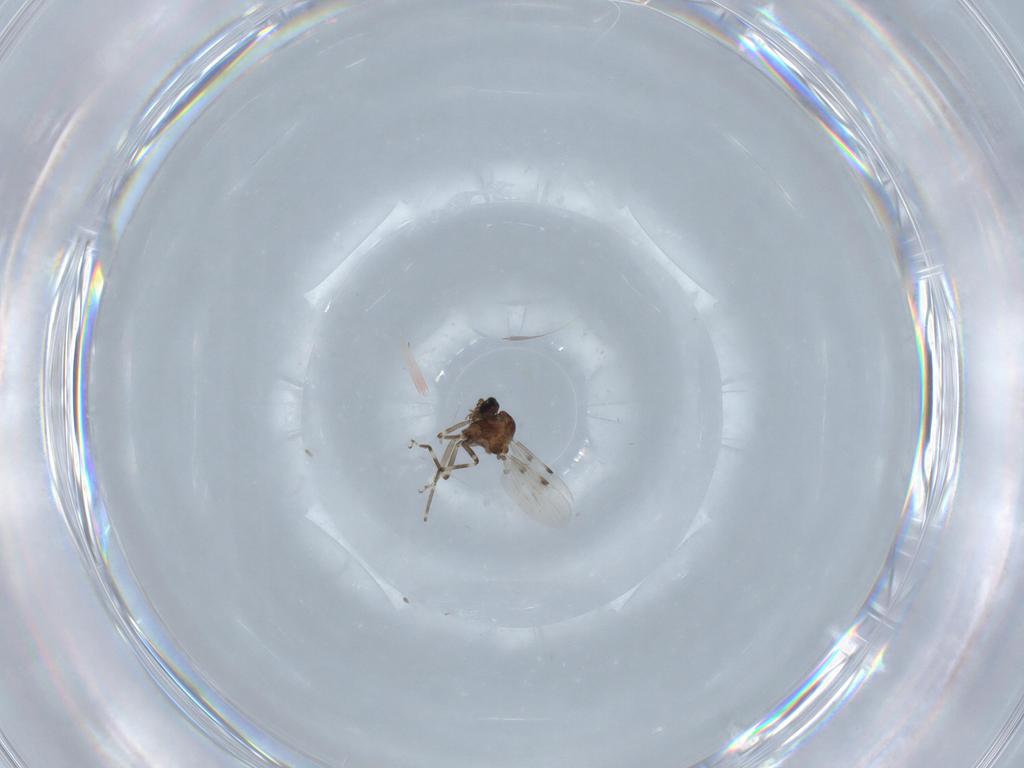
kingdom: Animalia
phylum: Arthropoda
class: Insecta
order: Diptera
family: Ceratopogonidae
